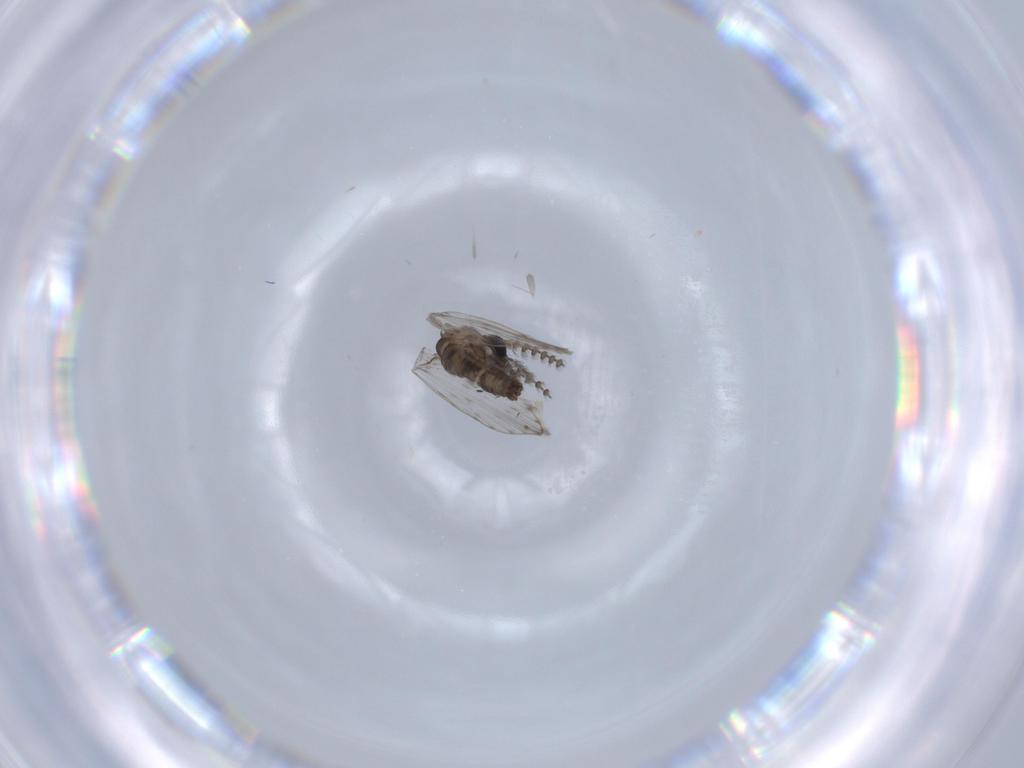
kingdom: Animalia
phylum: Arthropoda
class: Insecta
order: Diptera
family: Psychodidae
